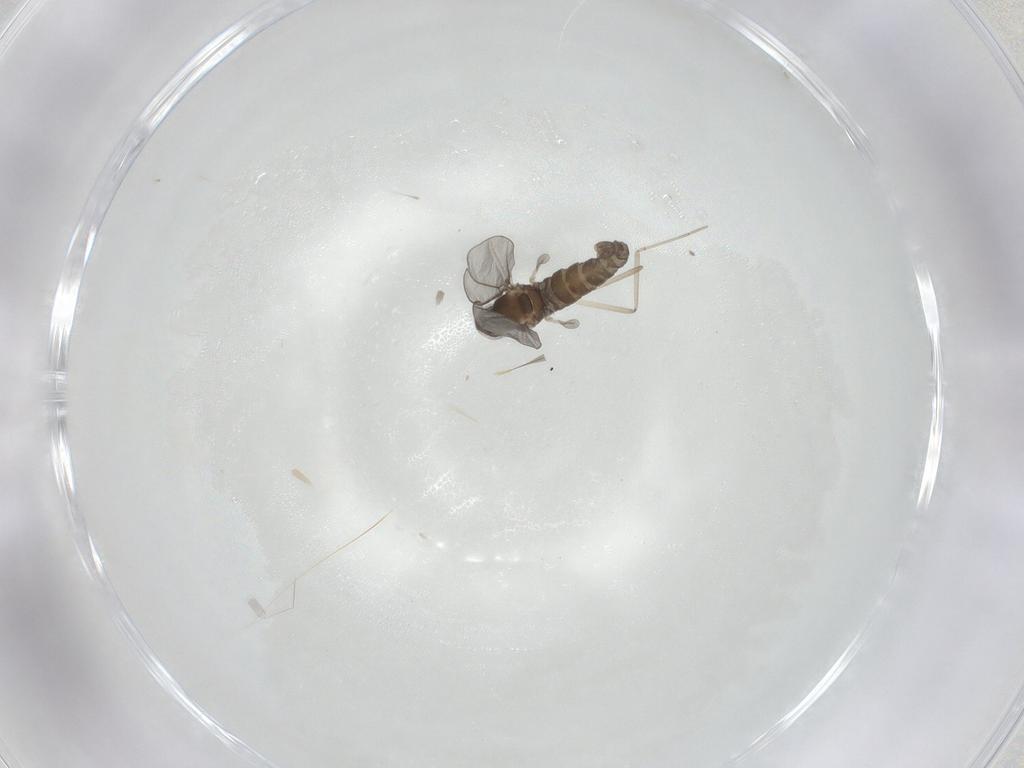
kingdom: Animalia
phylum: Arthropoda
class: Insecta
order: Diptera
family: Cecidomyiidae
